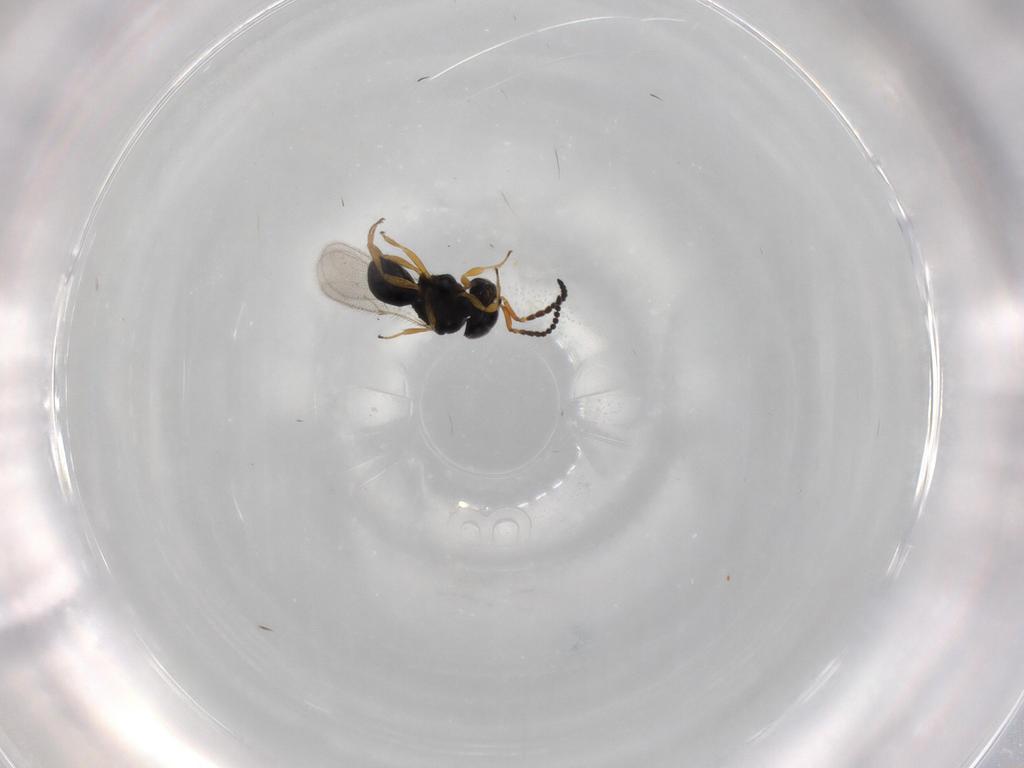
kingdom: Animalia
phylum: Arthropoda
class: Insecta
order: Hymenoptera
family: Scelionidae
